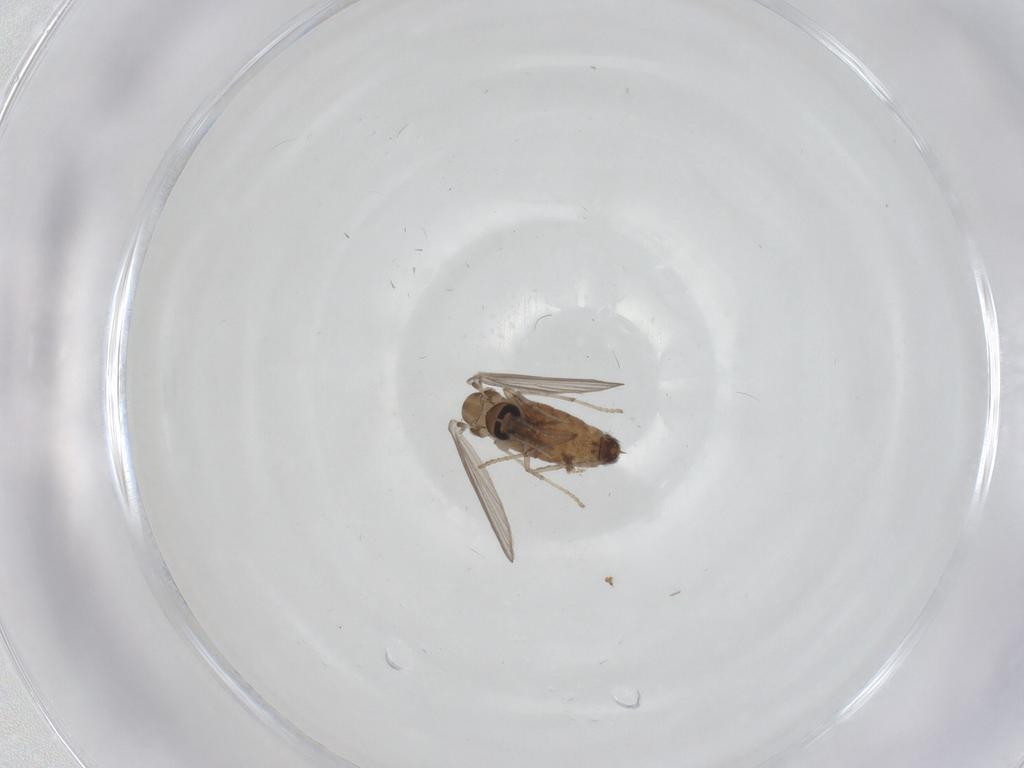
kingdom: Animalia
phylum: Arthropoda
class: Insecta
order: Diptera
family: Psychodidae
